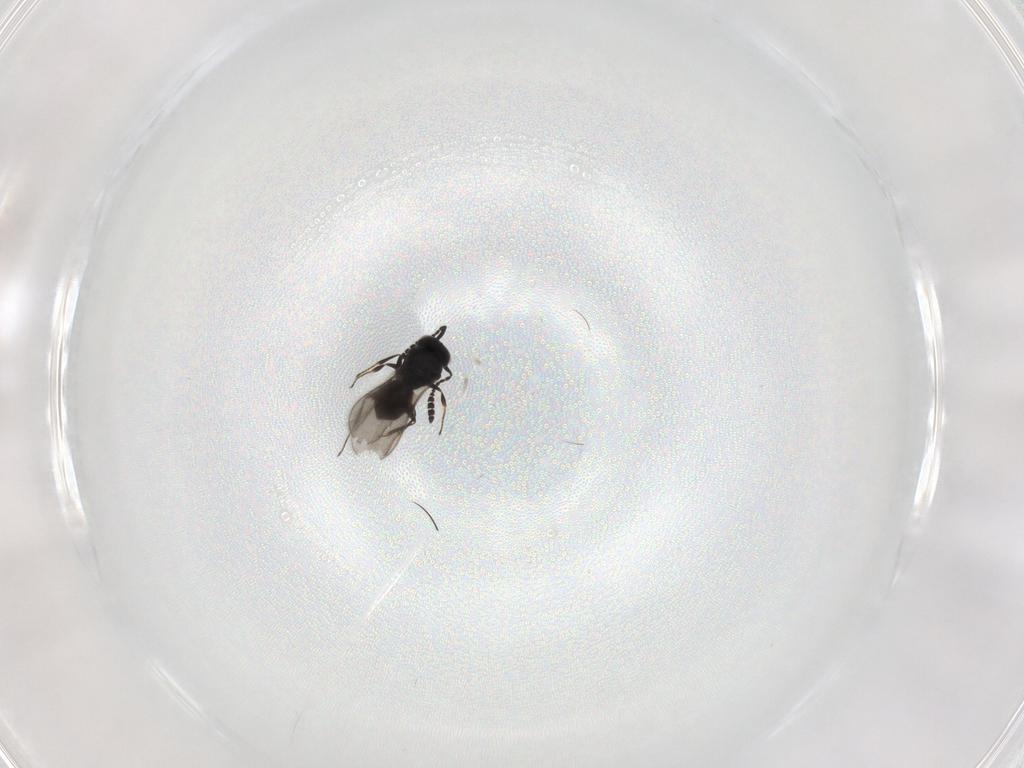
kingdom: Animalia
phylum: Arthropoda
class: Insecta
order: Hymenoptera
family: Scelionidae
